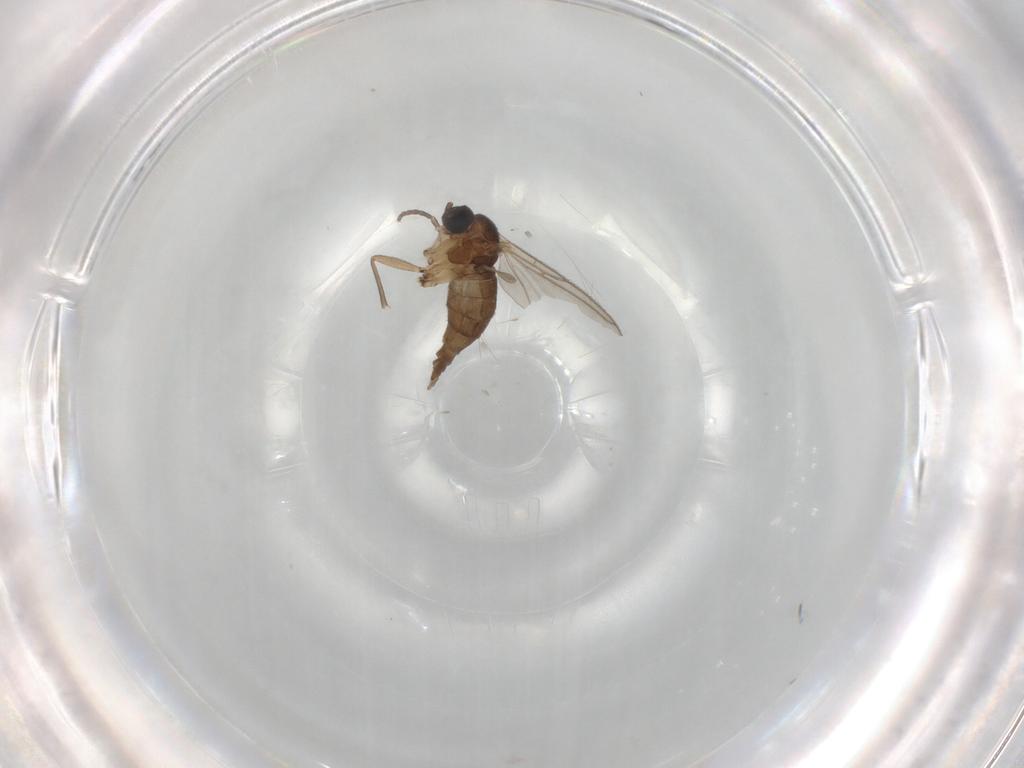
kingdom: Animalia
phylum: Arthropoda
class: Insecta
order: Diptera
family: Sciaridae
